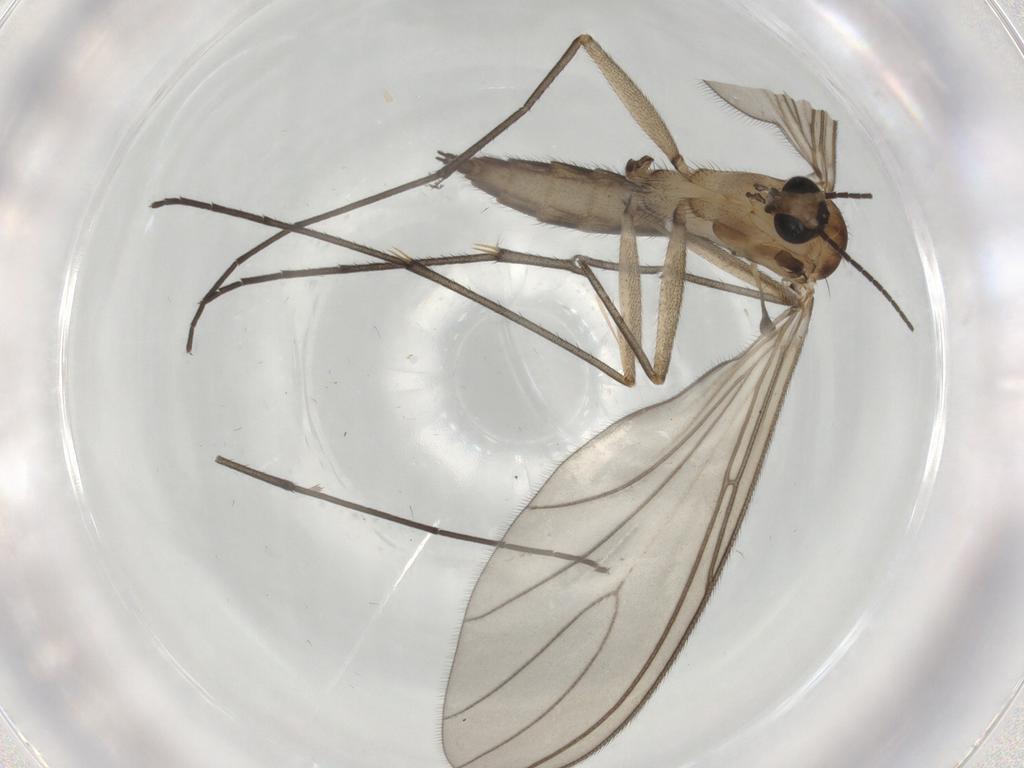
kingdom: Animalia
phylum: Arthropoda
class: Insecta
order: Diptera
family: Sciaridae
